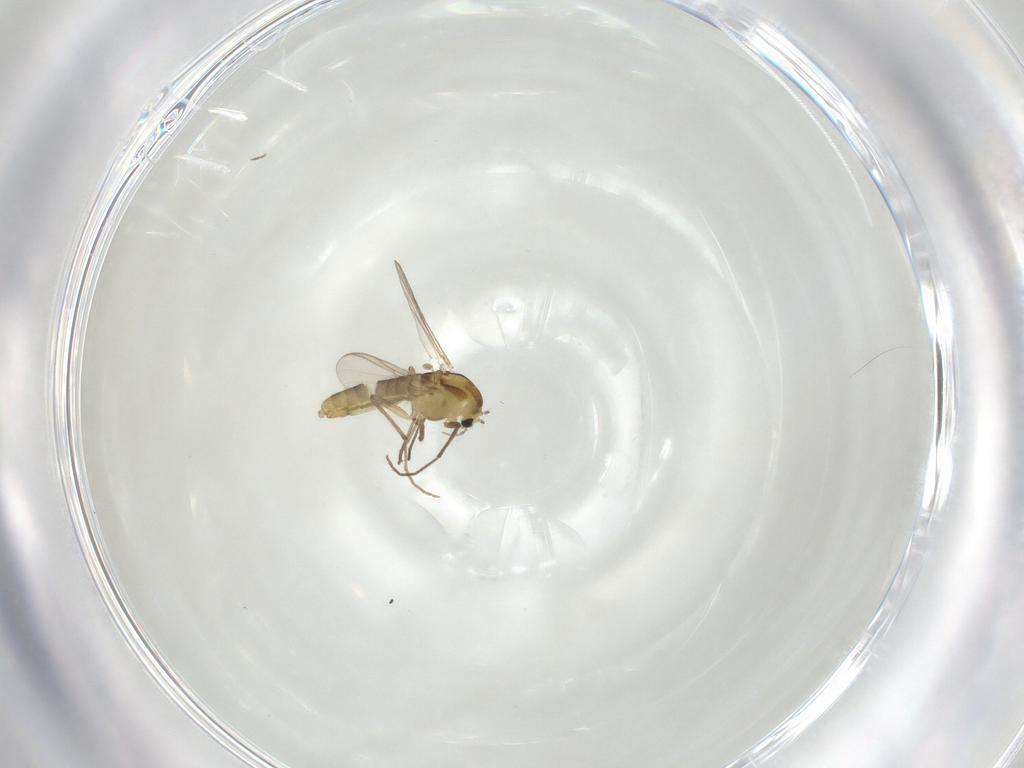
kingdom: Animalia
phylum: Arthropoda
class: Insecta
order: Diptera
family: Chironomidae
